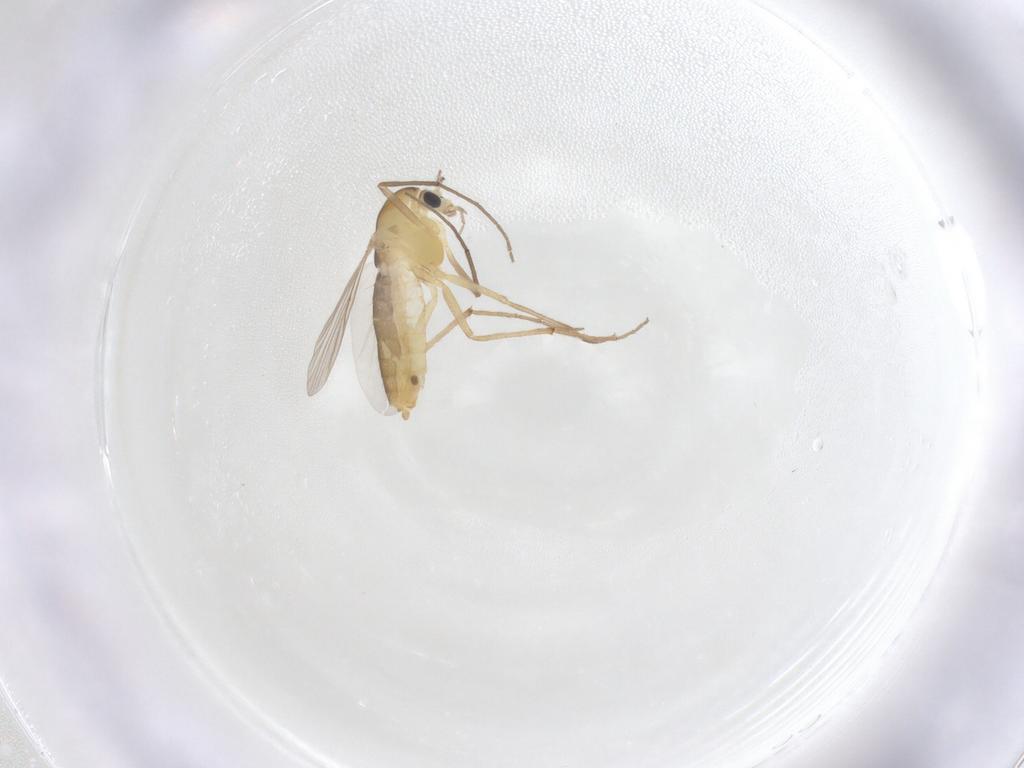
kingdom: Animalia
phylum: Arthropoda
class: Insecta
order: Diptera
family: Chironomidae
